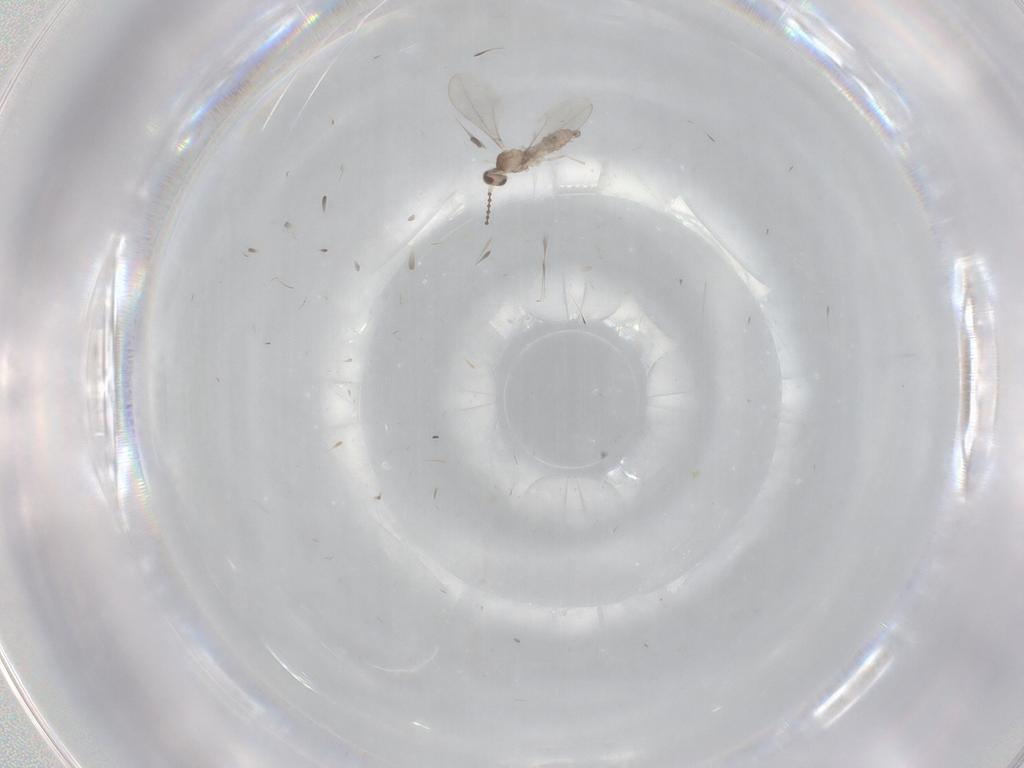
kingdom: Animalia
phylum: Arthropoda
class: Insecta
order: Diptera
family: Cecidomyiidae
